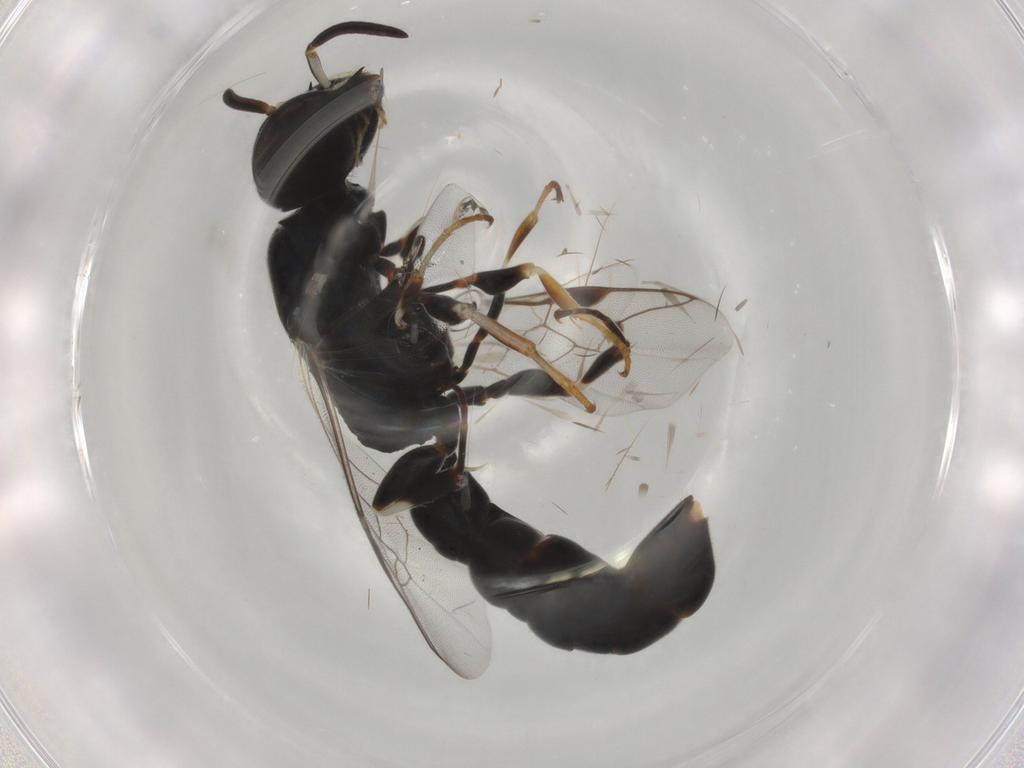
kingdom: Animalia
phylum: Arthropoda
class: Insecta
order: Hymenoptera
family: Pemphredonidae
